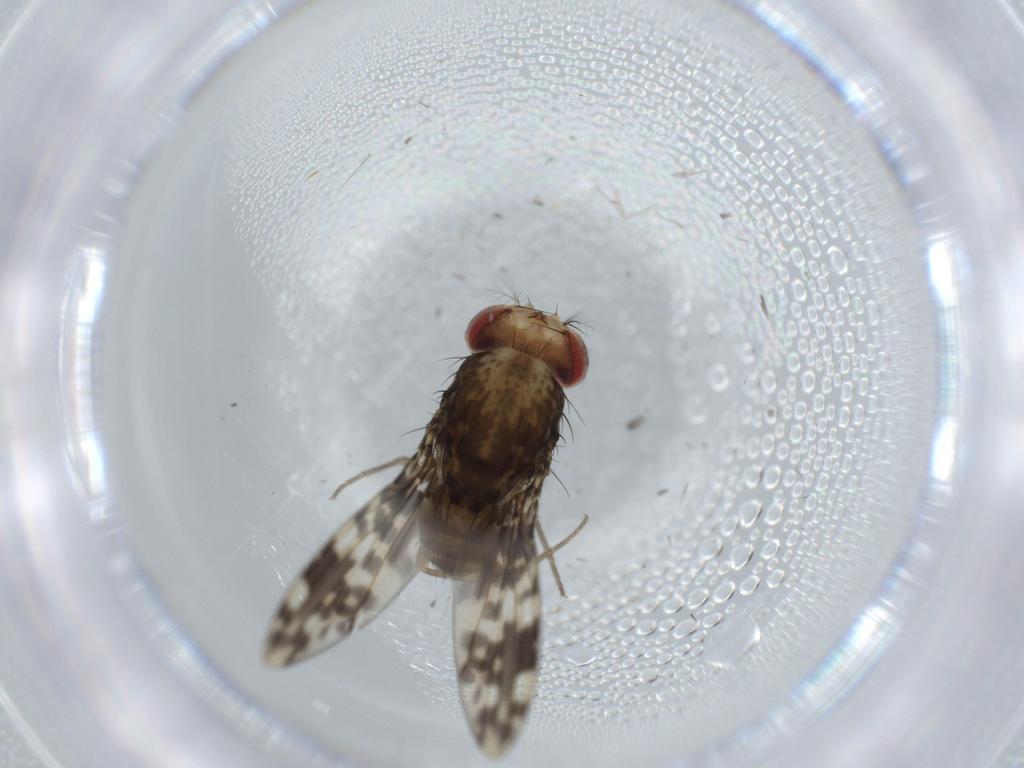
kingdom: Animalia
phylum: Arthropoda
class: Insecta
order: Diptera
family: Drosophilidae
